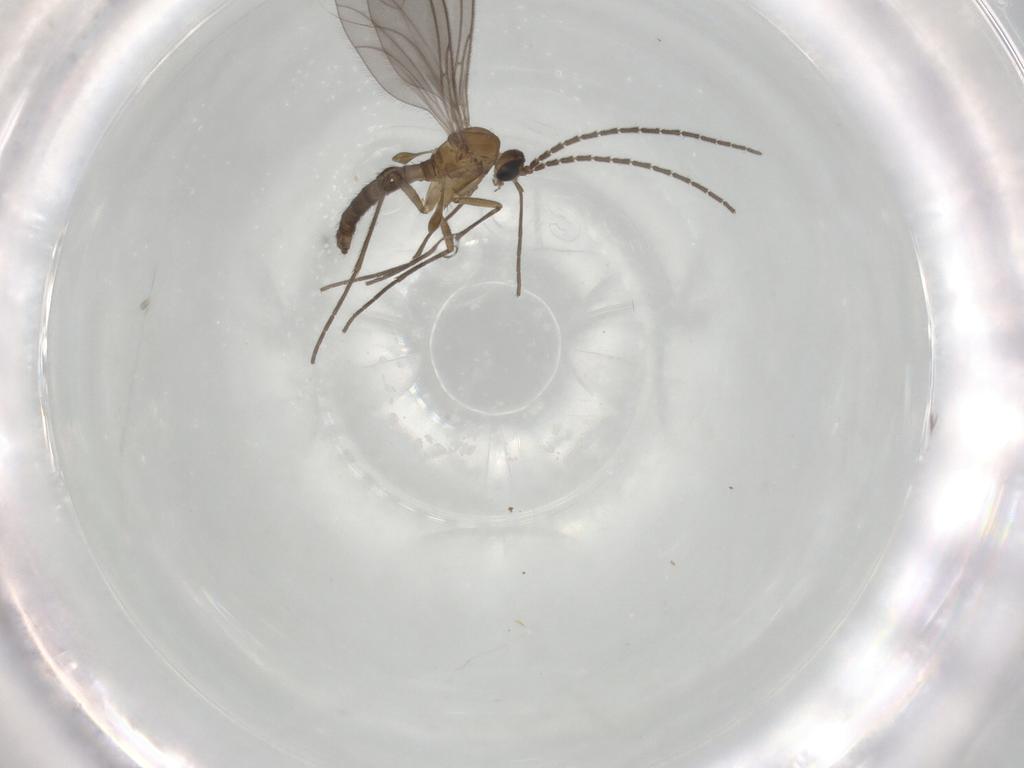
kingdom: Animalia
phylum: Arthropoda
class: Insecta
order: Diptera
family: Sciaridae
